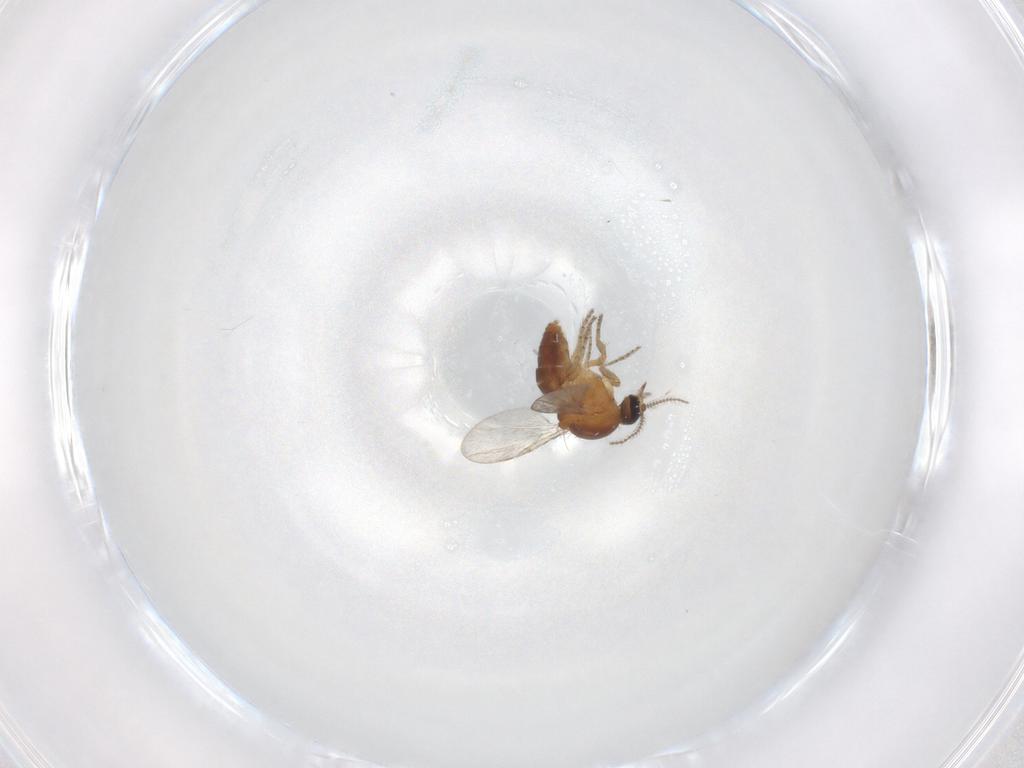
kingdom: Animalia
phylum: Arthropoda
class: Insecta
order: Diptera
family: Ceratopogonidae
